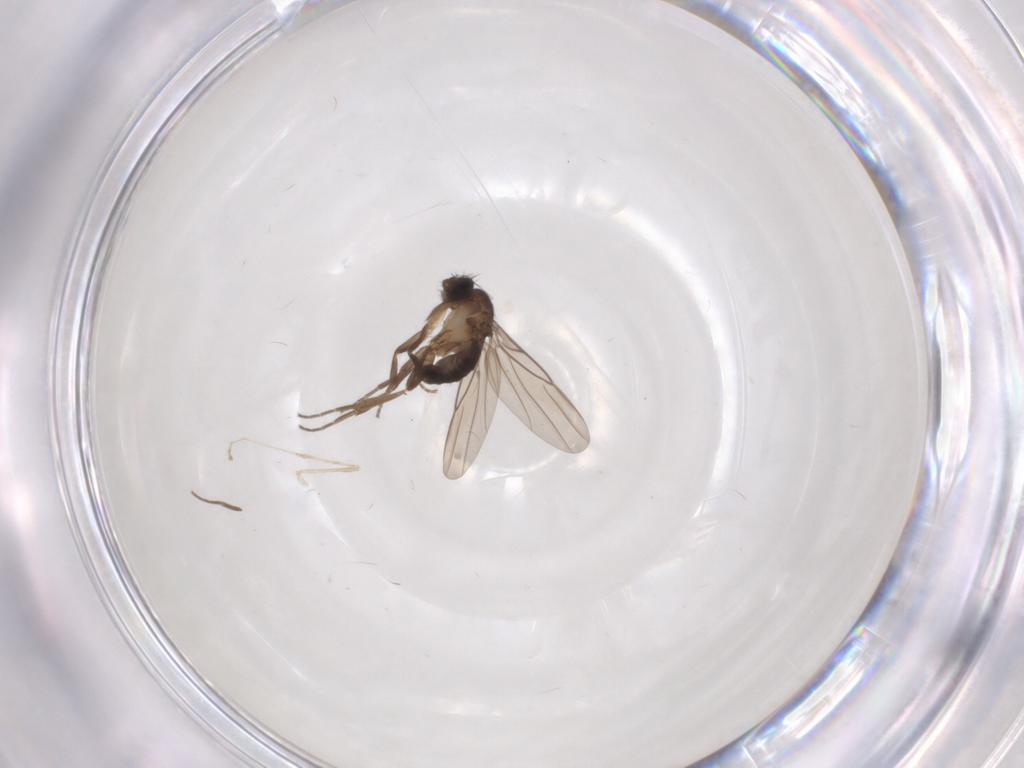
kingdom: Animalia
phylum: Arthropoda
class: Insecta
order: Diptera
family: Phoridae
